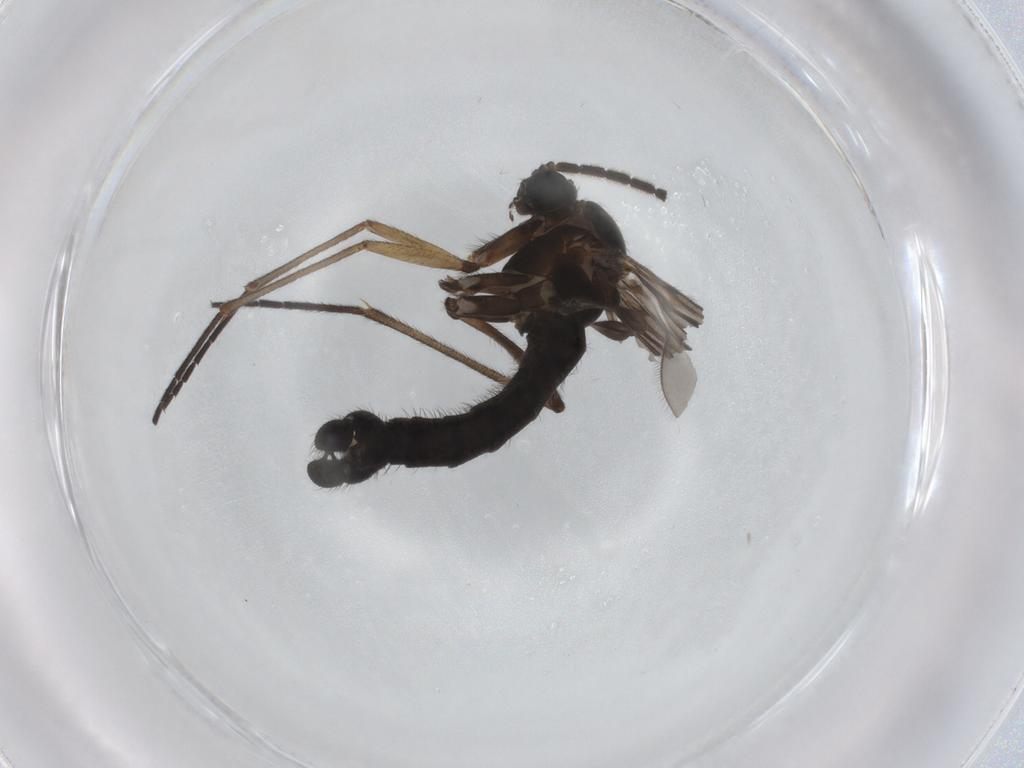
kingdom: Animalia
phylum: Arthropoda
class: Insecta
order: Diptera
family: Sciaridae
